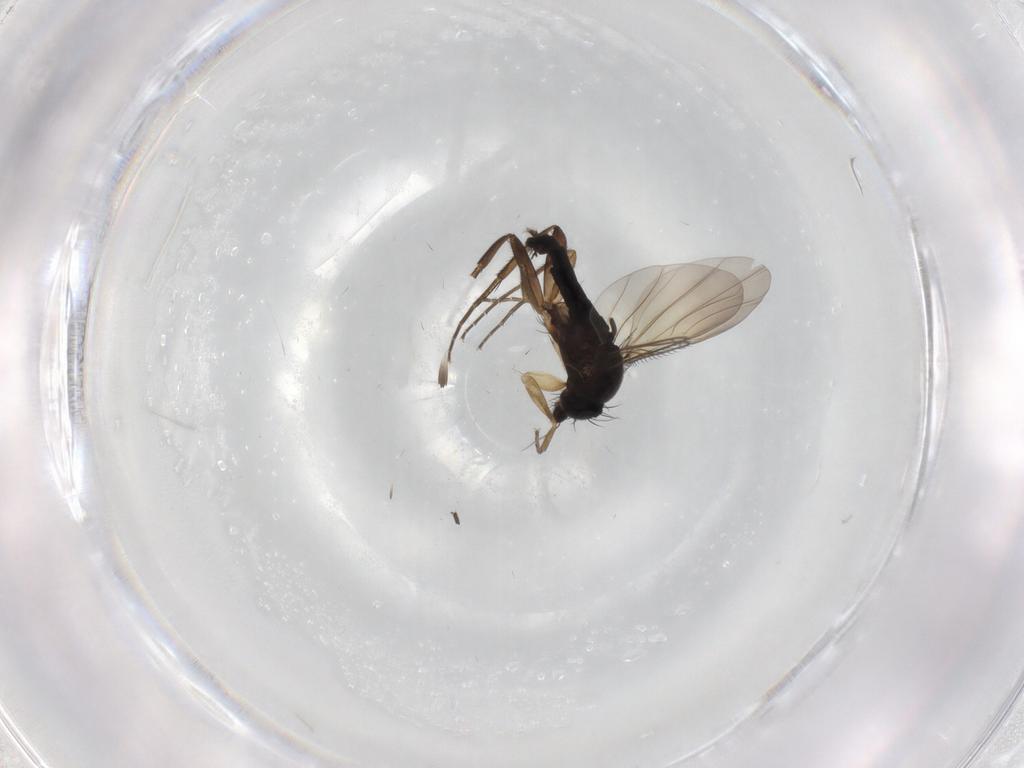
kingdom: Animalia
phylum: Arthropoda
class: Insecta
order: Diptera
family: Phoridae
